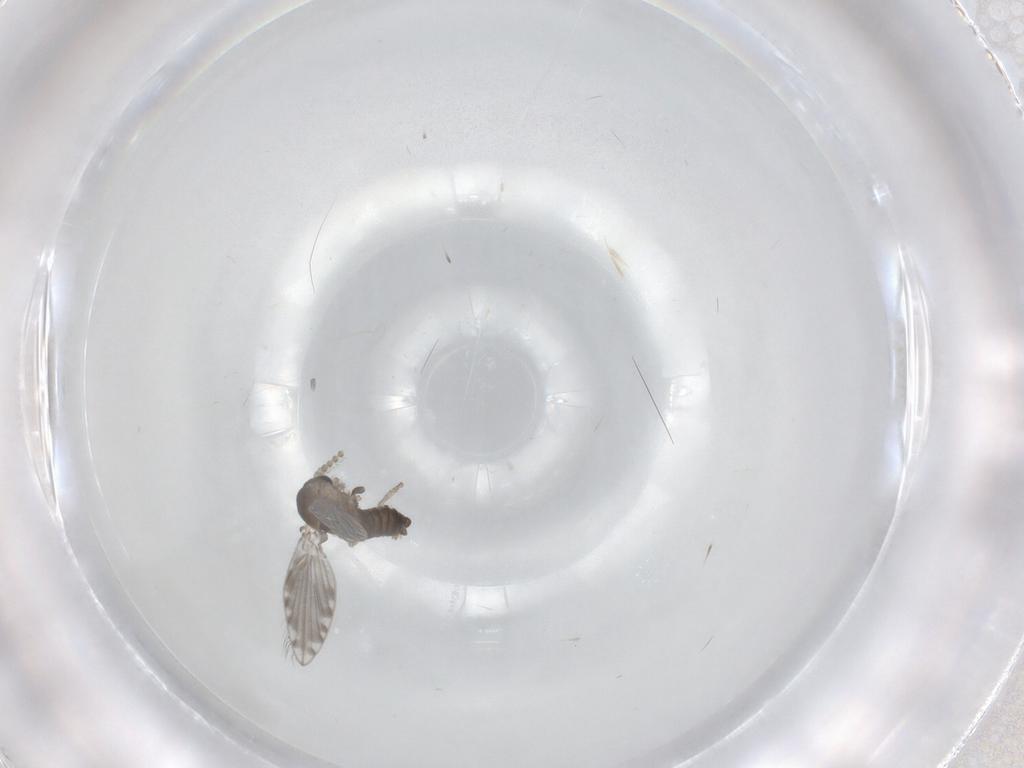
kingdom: Animalia
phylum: Arthropoda
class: Insecta
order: Diptera
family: Psychodidae
